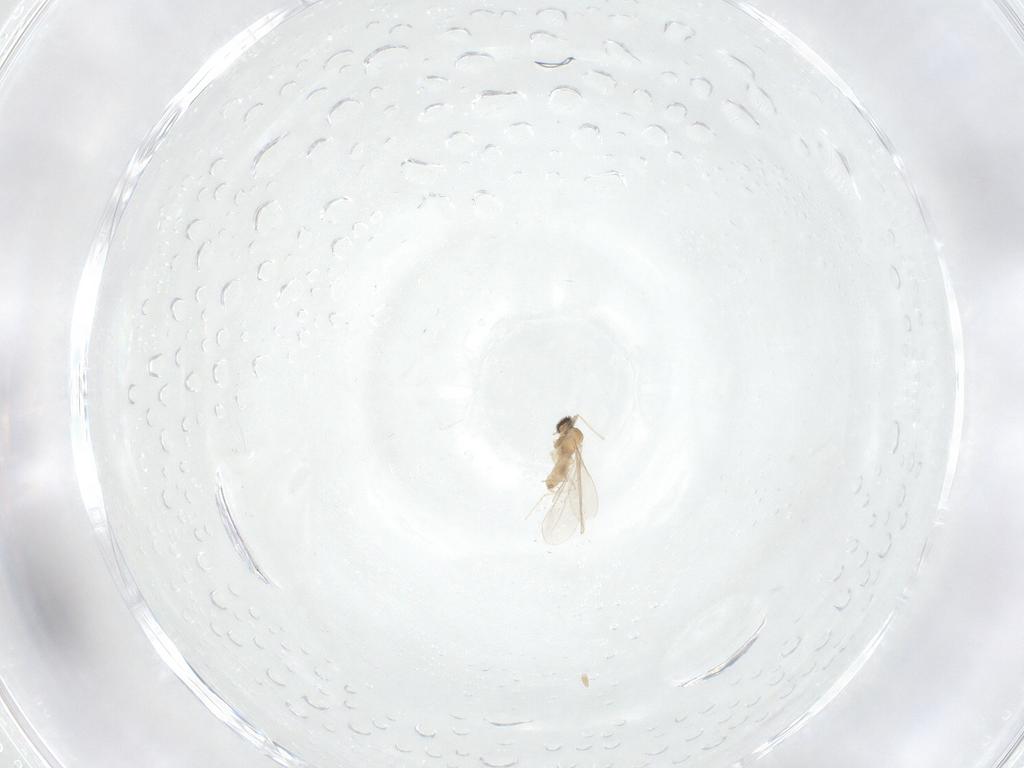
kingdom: Animalia
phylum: Arthropoda
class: Insecta
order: Diptera
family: Cecidomyiidae
